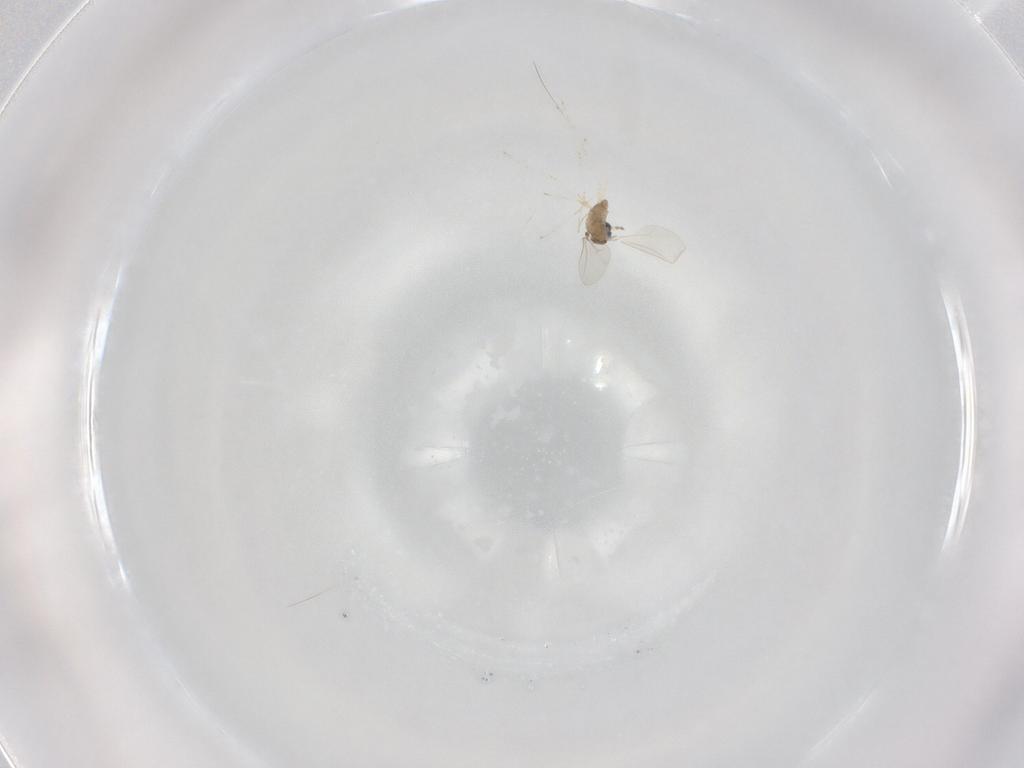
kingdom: Animalia
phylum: Arthropoda
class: Insecta
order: Diptera
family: Cecidomyiidae
